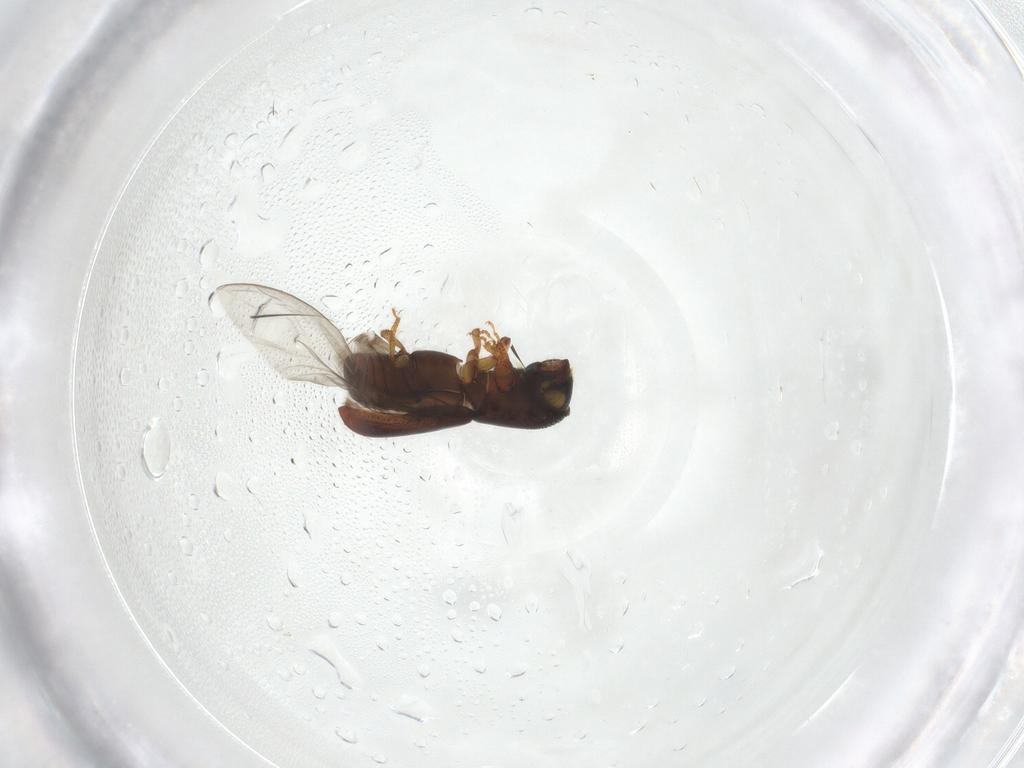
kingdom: Animalia
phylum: Arthropoda
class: Insecta
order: Coleoptera
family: Curculionidae
